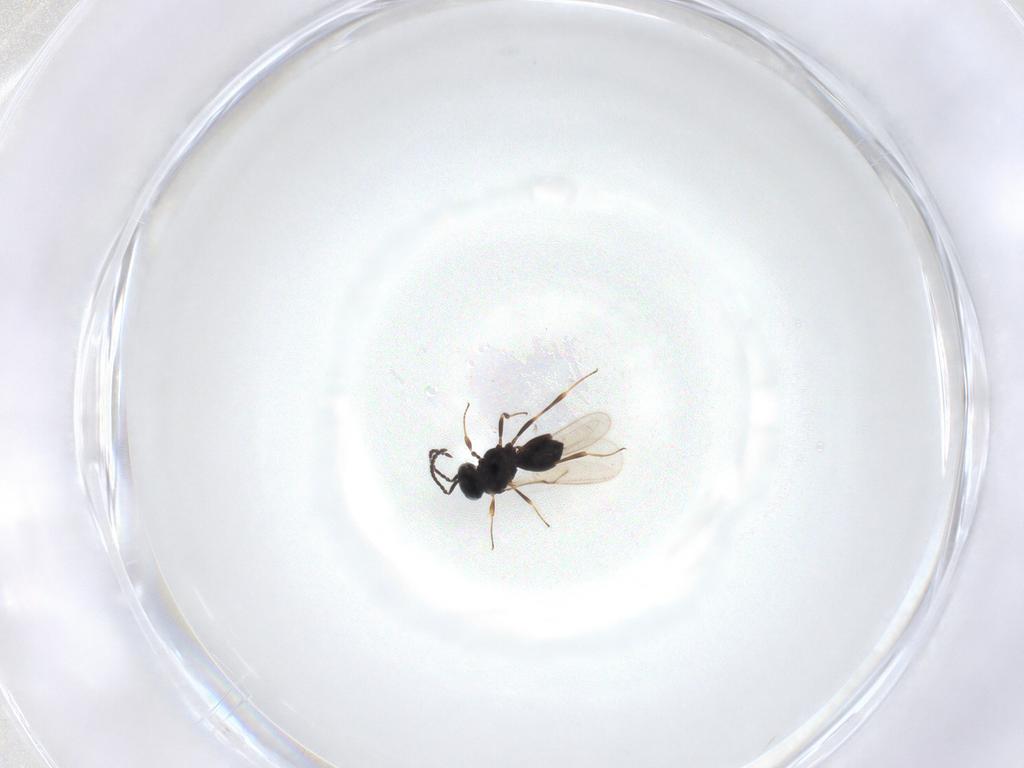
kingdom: Animalia
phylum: Arthropoda
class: Insecta
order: Hymenoptera
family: Scelionidae
